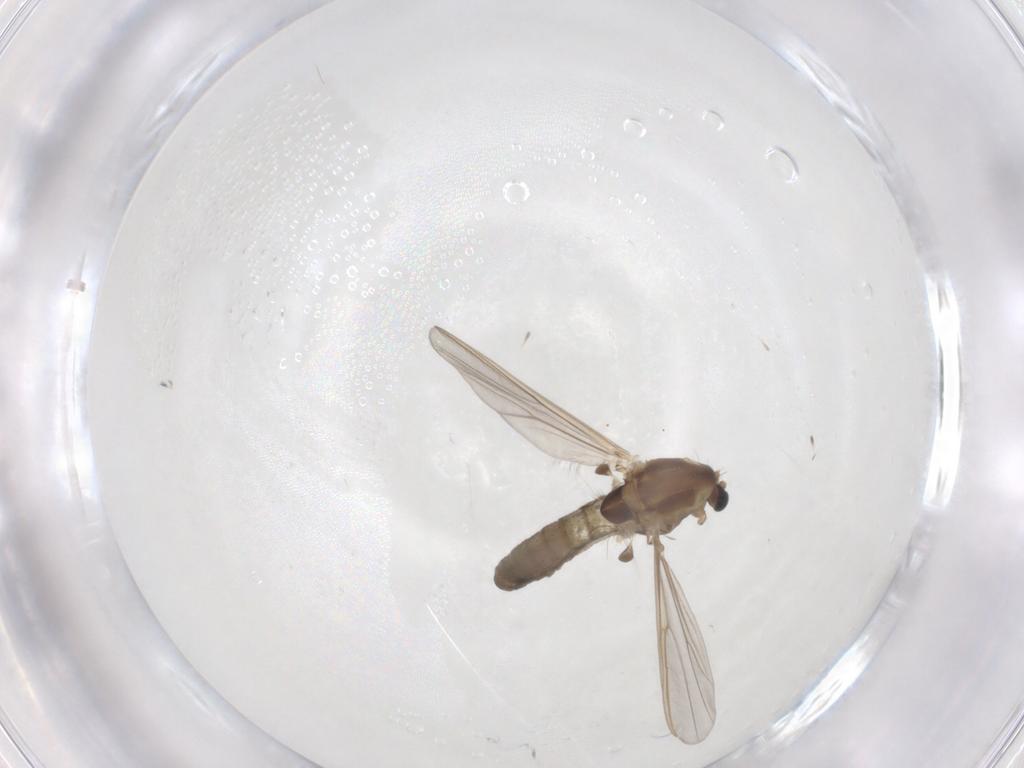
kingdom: Animalia
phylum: Arthropoda
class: Insecta
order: Diptera
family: Chironomidae
